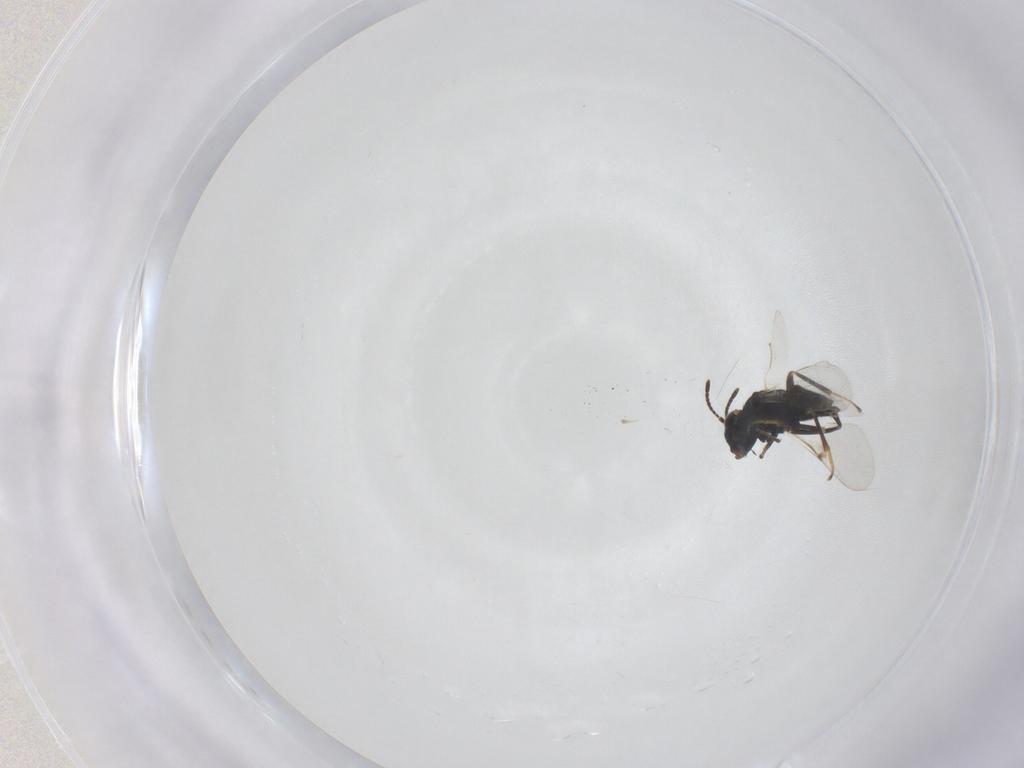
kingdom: Animalia
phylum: Arthropoda
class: Insecta
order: Hymenoptera
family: Encyrtidae
